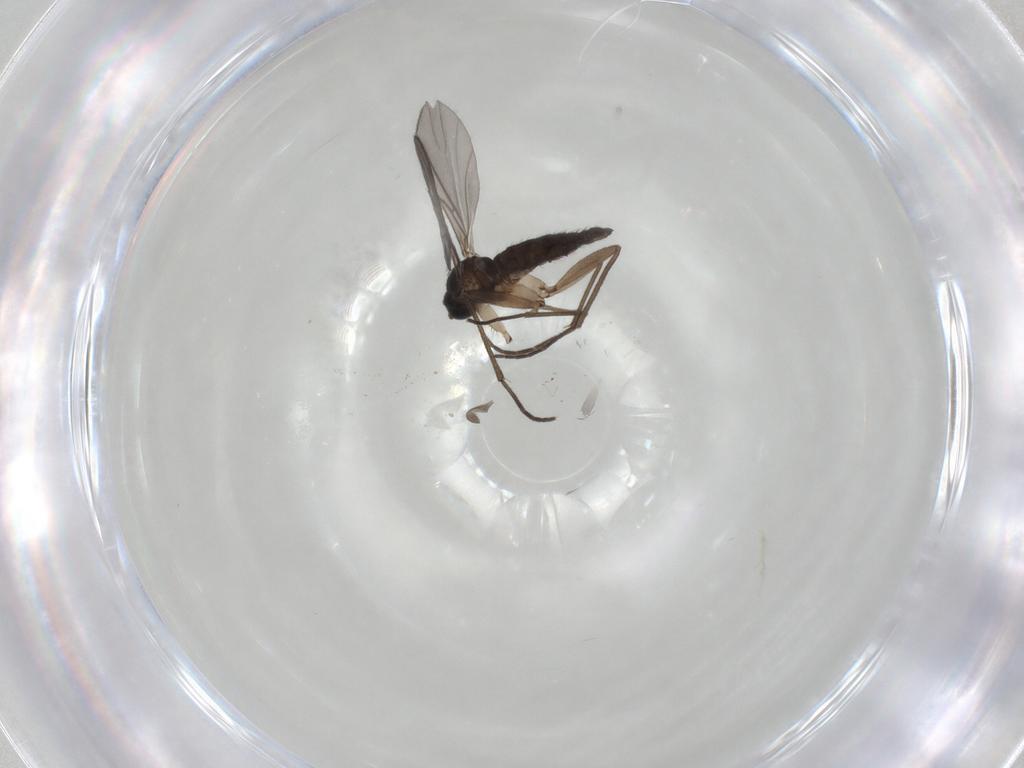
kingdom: Animalia
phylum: Arthropoda
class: Insecta
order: Diptera
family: Sciaridae
